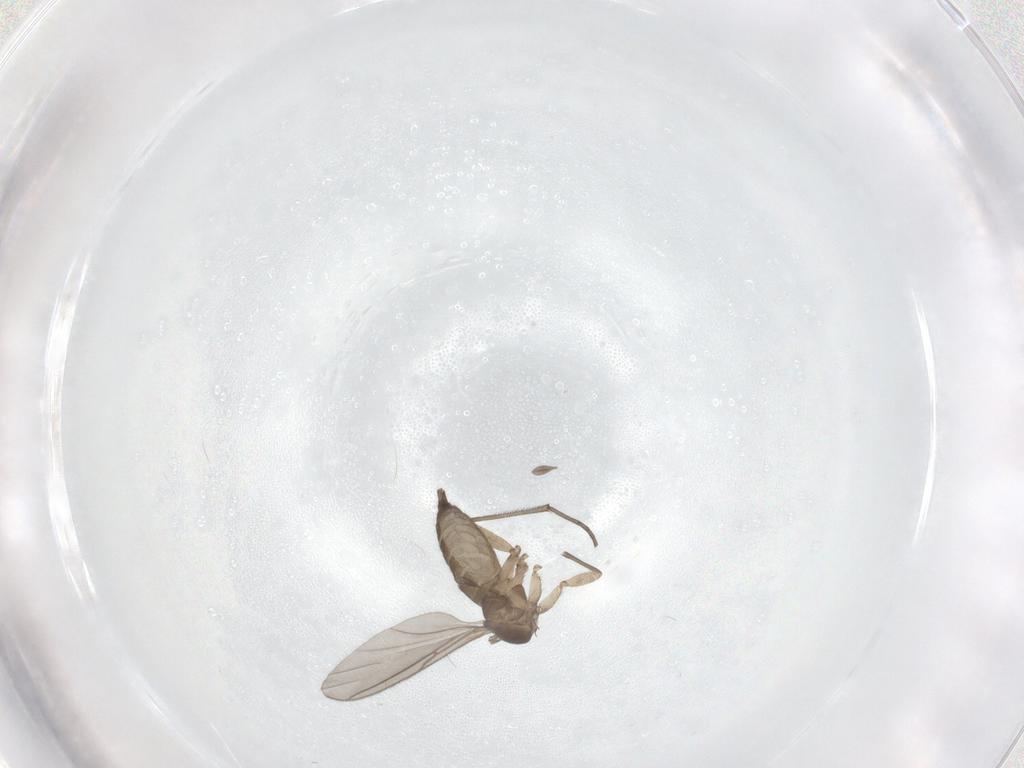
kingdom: Animalia
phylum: Arthropoda
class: Insecta
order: Diptera
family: Sciaridae
